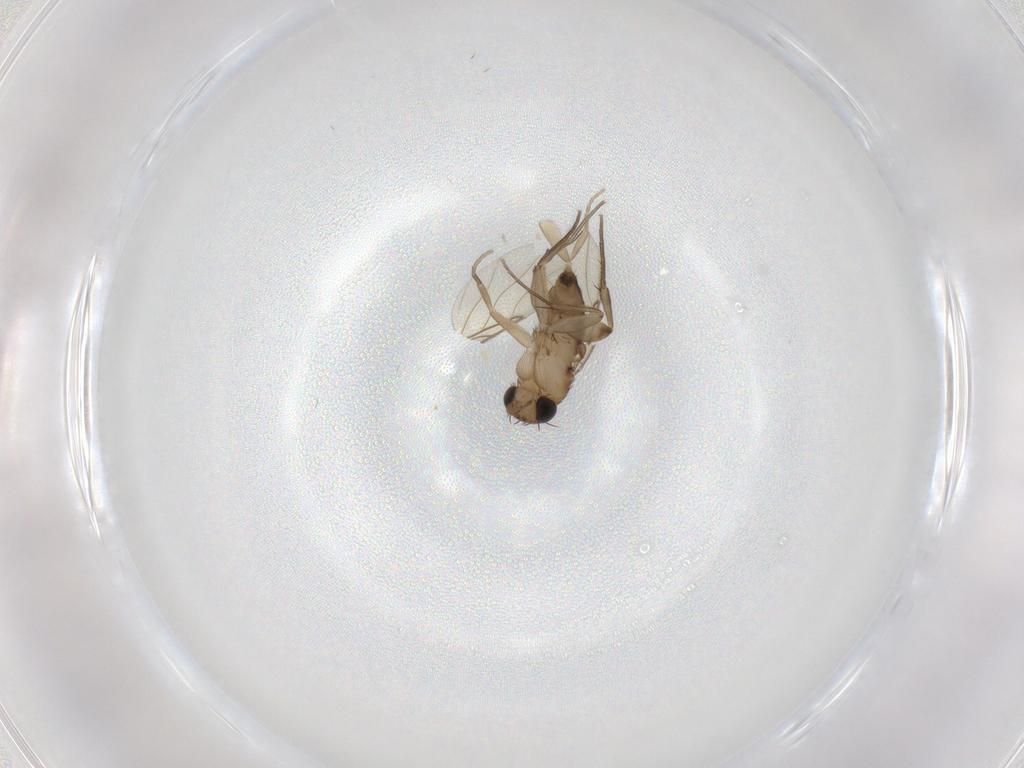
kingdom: Animalia
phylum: Arthropoda
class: Insecta
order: Diptera
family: Phoridae
